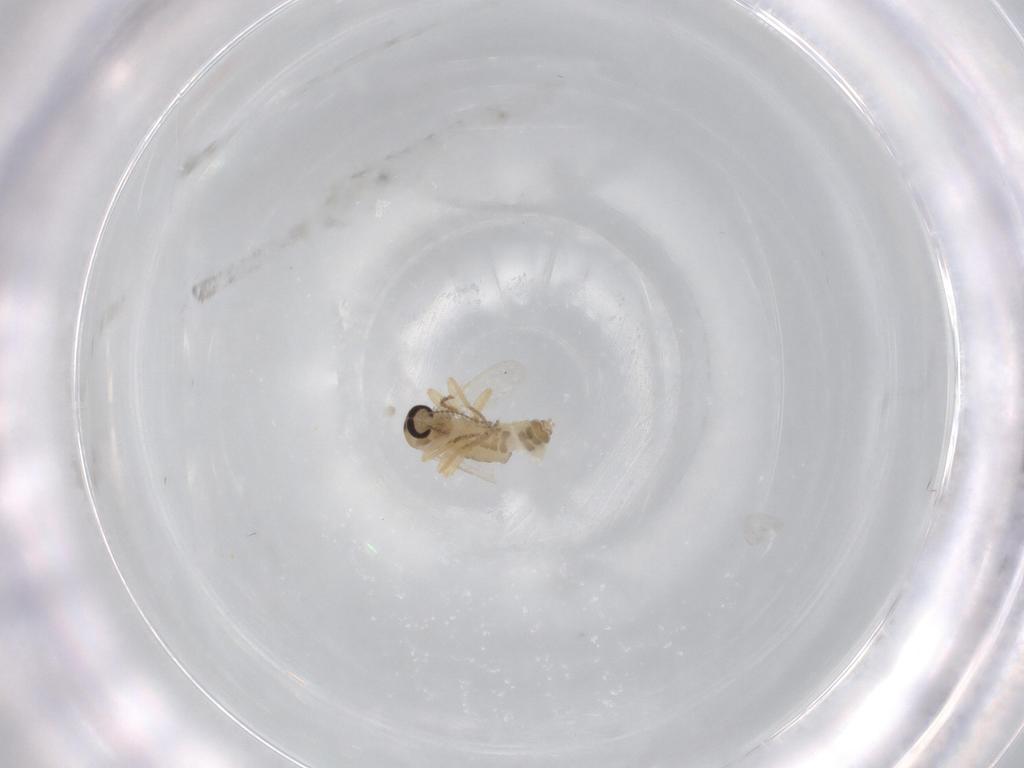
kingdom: Animalia
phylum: Arthropoda
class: Insecta
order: Diptera
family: Ceratopogonidae
